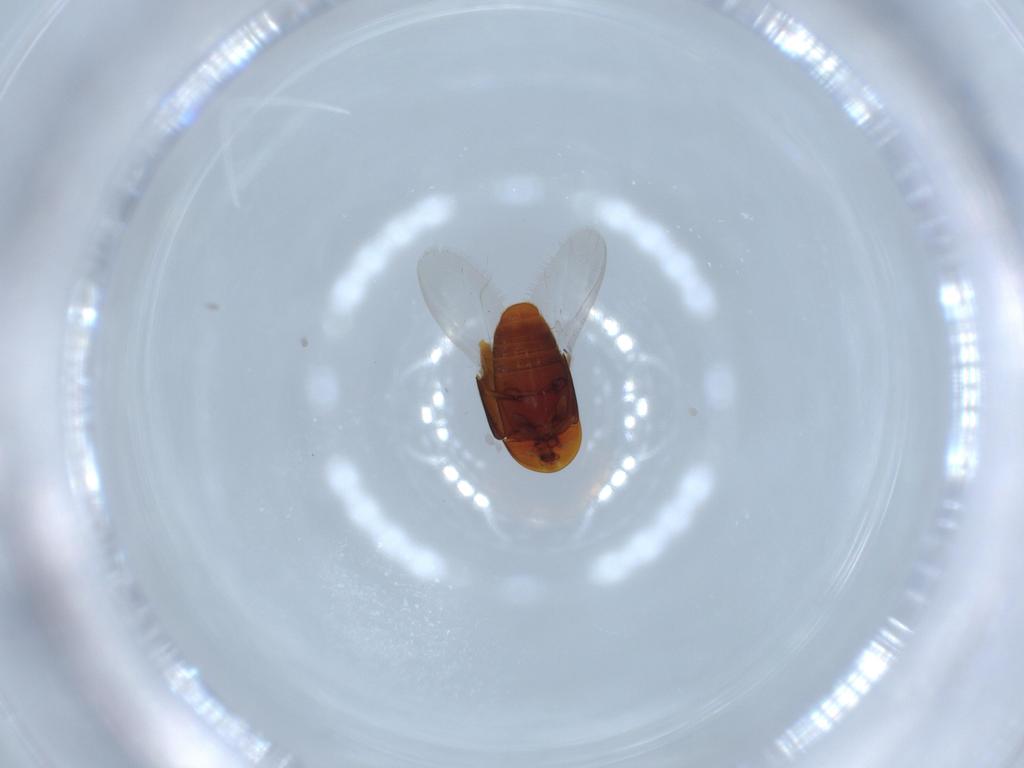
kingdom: Animalia
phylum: Arthropoda
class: Insecta
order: Coleoptera
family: Corylophidae
